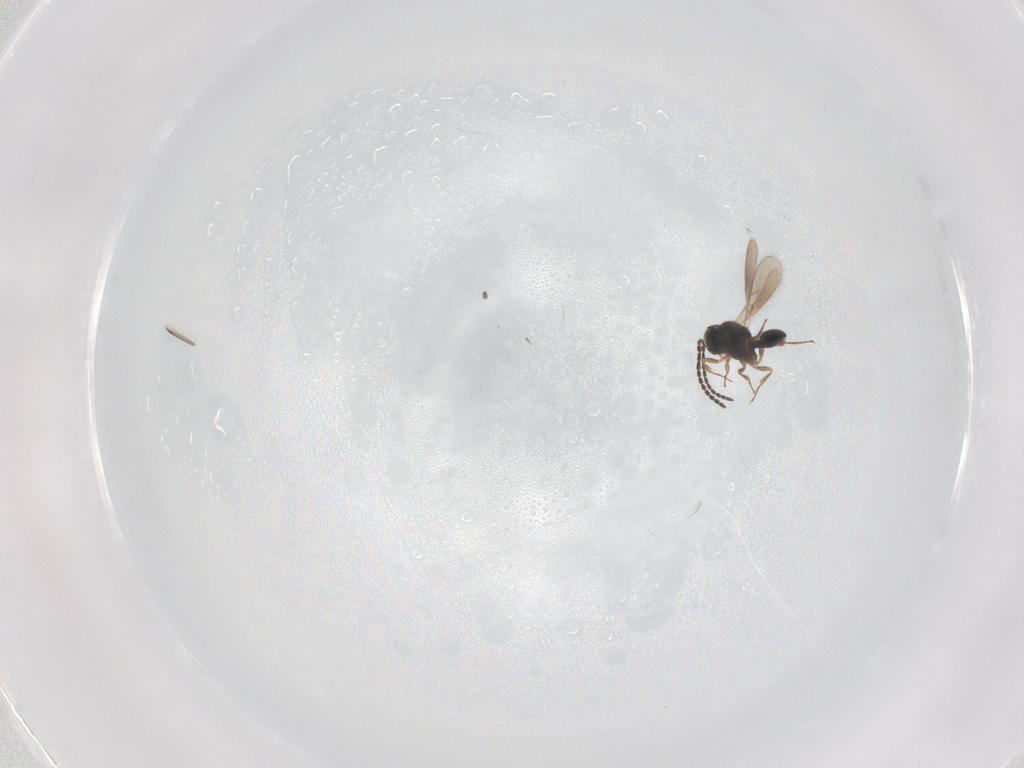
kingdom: Animalia
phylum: Arthropoda
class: Insecta
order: Hymenoptera
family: Scelionidae
